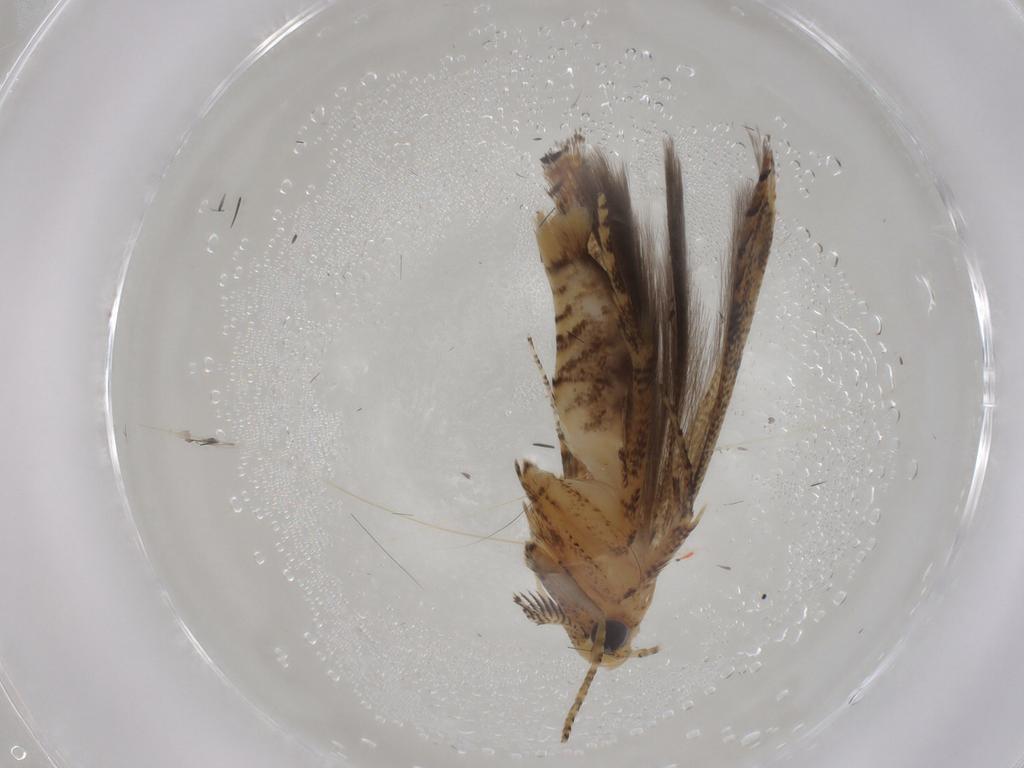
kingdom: Animalia
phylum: Arthropoda
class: Insecta
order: Lepidoptera
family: Gelechiidae
